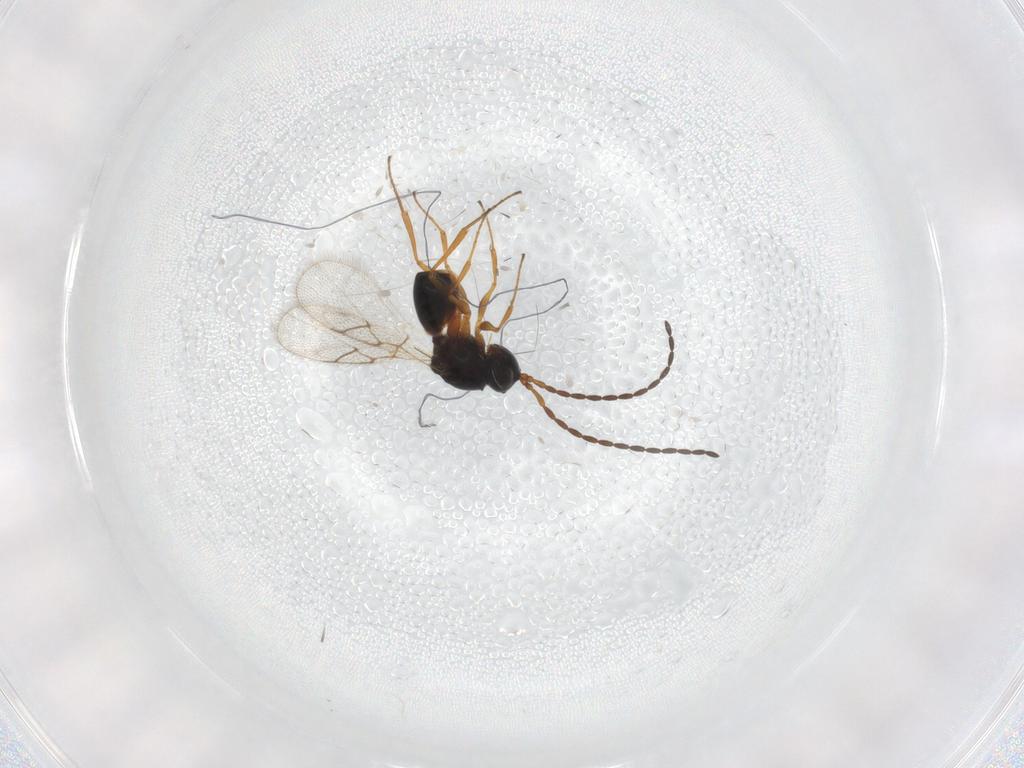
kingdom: Animalia
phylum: Arthropoda
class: Insecta
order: Hymenoptera
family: Figitidae
